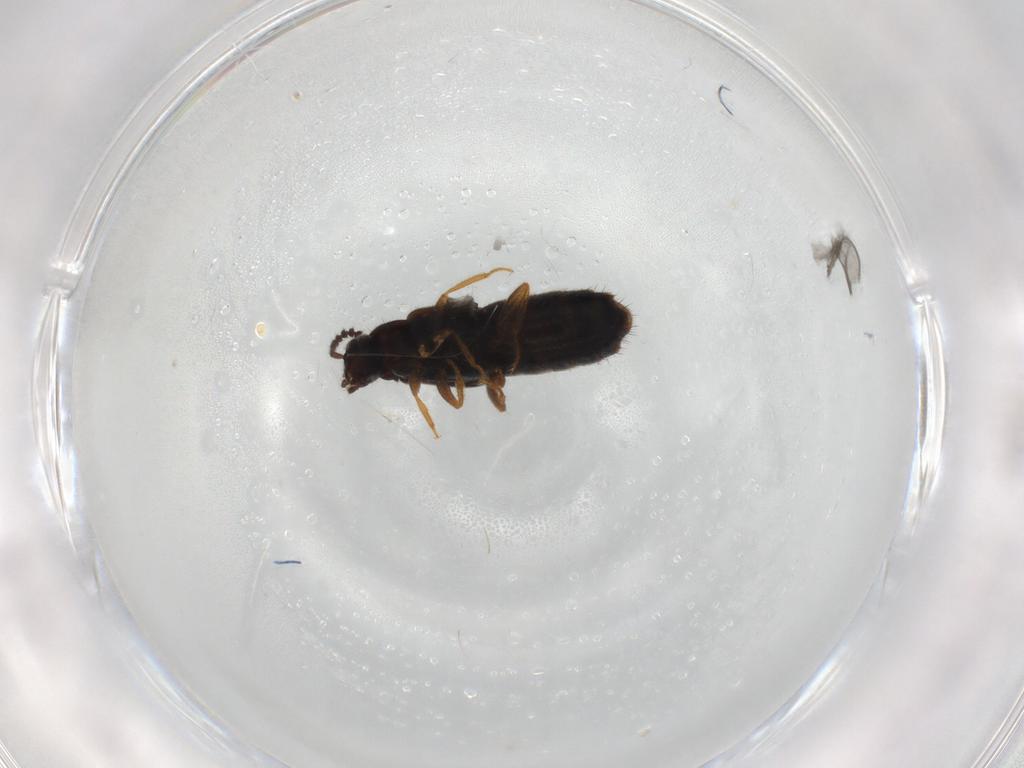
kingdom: Animalia
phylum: Arthropoda
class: Insecta
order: Coleoptera
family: Staphylinidae
